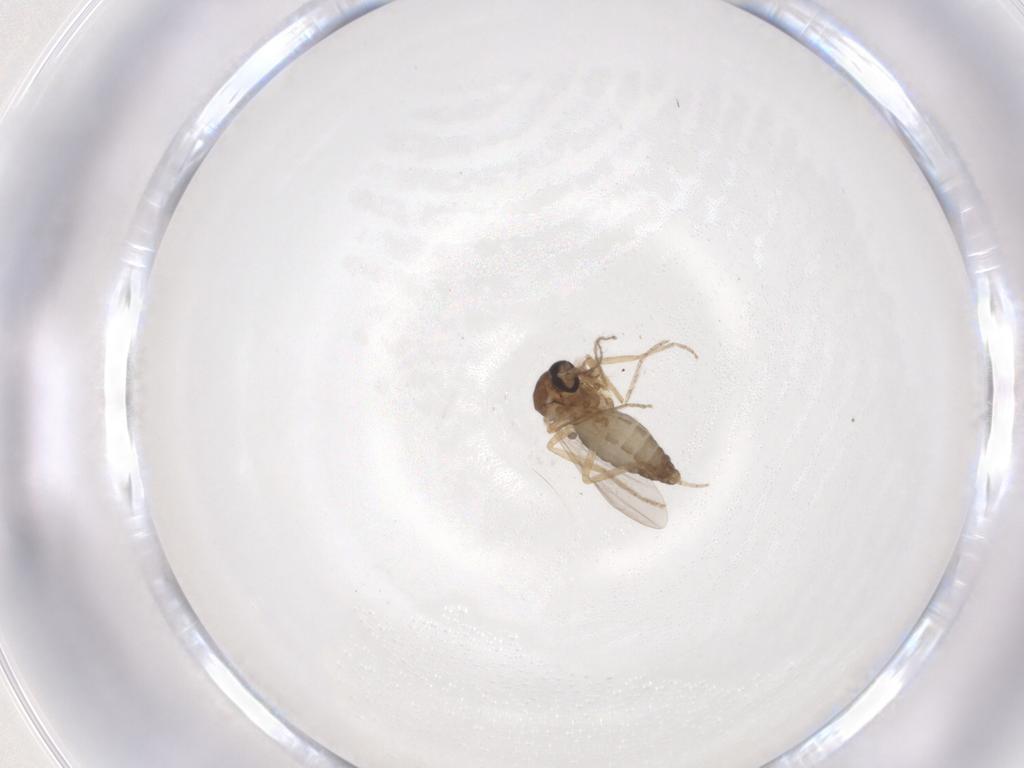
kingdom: Animalia
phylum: Arthropoda
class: Insecta
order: Diptera
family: Ceratopogonidae
